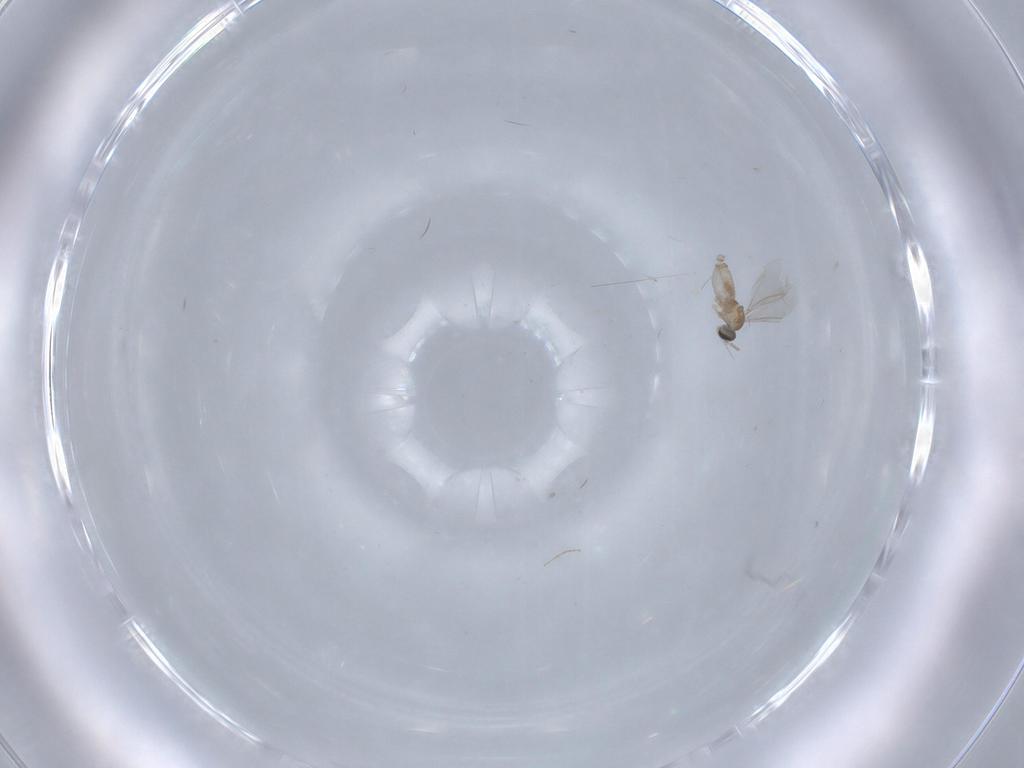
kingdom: Animalia
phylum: Arthropoda
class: Insecta
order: Diptera
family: Cecidomyiidae
